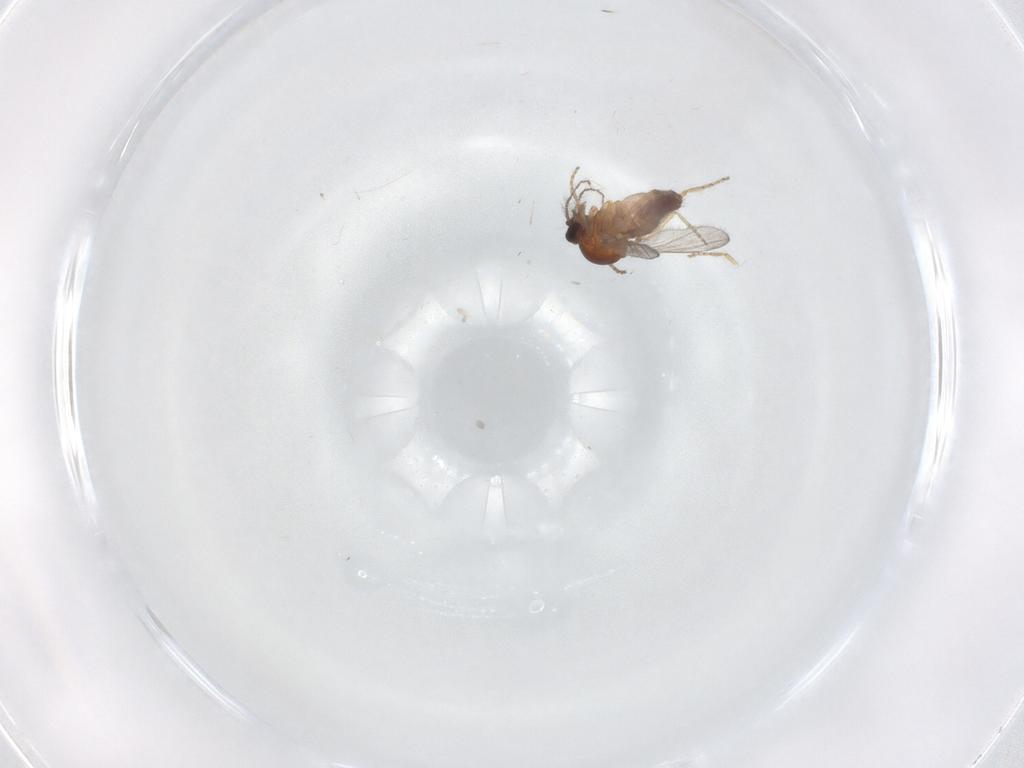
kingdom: Animalia
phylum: Arthropoda
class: Insecta
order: Diptera
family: Ceratopogonidae
